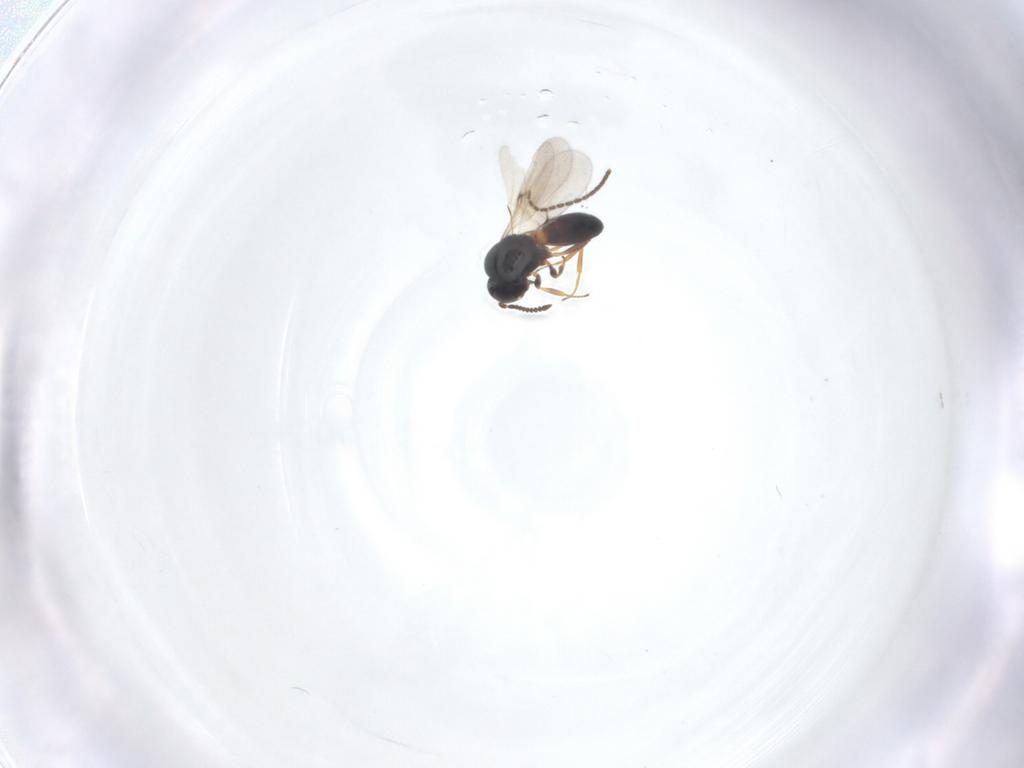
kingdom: Animalia
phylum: Arthropoda
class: Insecta
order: Hymenoptera
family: Scelionidae
